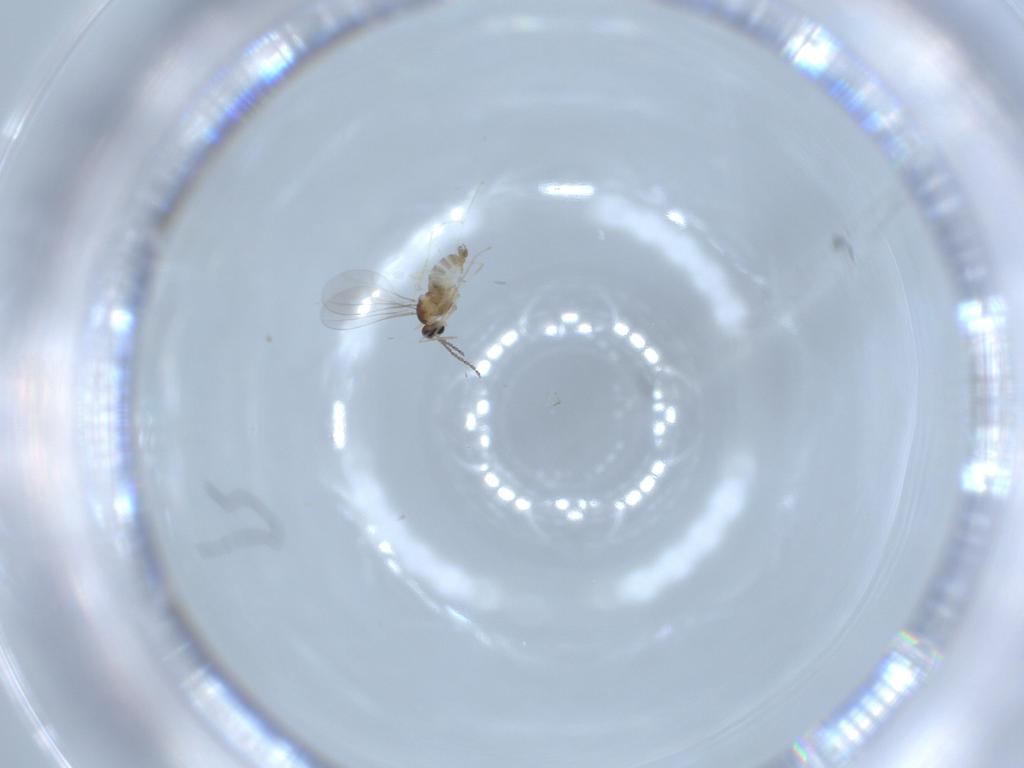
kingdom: Animalia
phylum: Arthropoda
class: Insecta
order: Diptera
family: Cecidomyiidae
